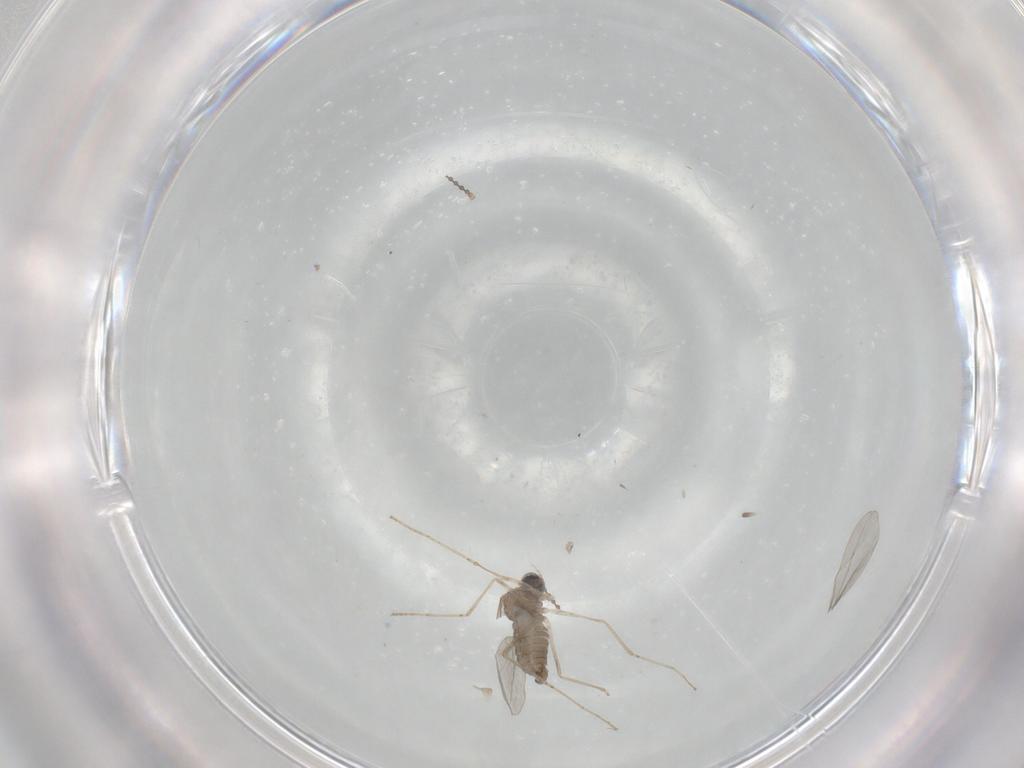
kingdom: Animalia
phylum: Arthropoda
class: Insecta
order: Diptera
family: Cecidomyiidae
